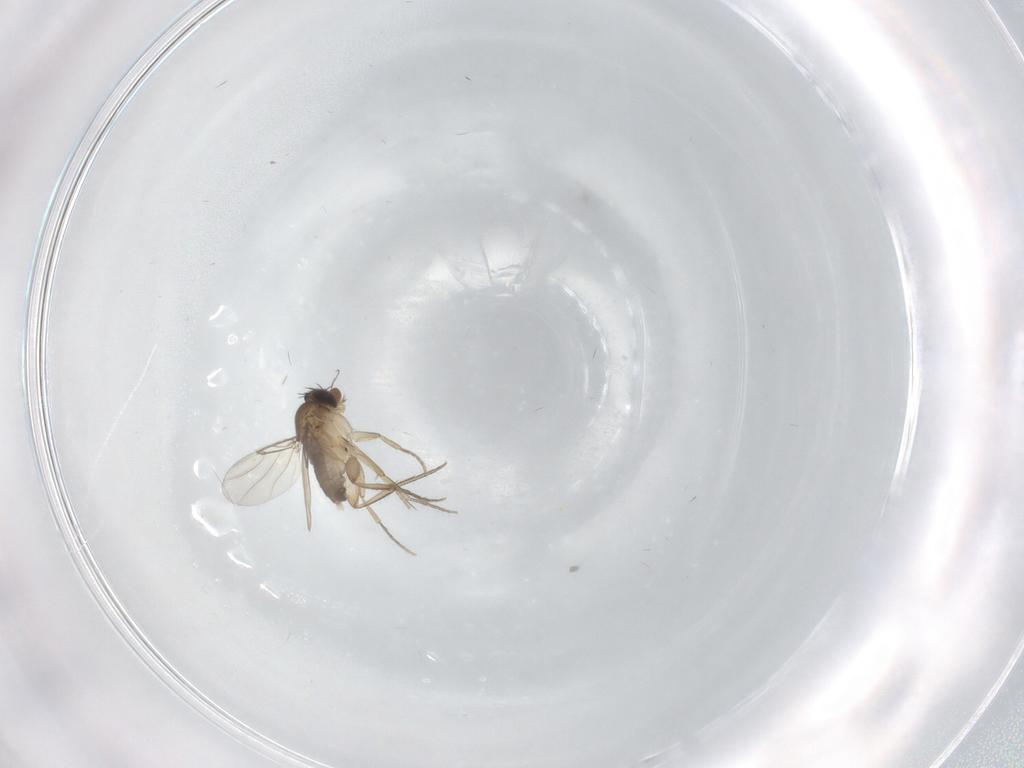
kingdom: Animalia
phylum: Arthropoda
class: Insecta
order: Diptera
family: Phoridae
